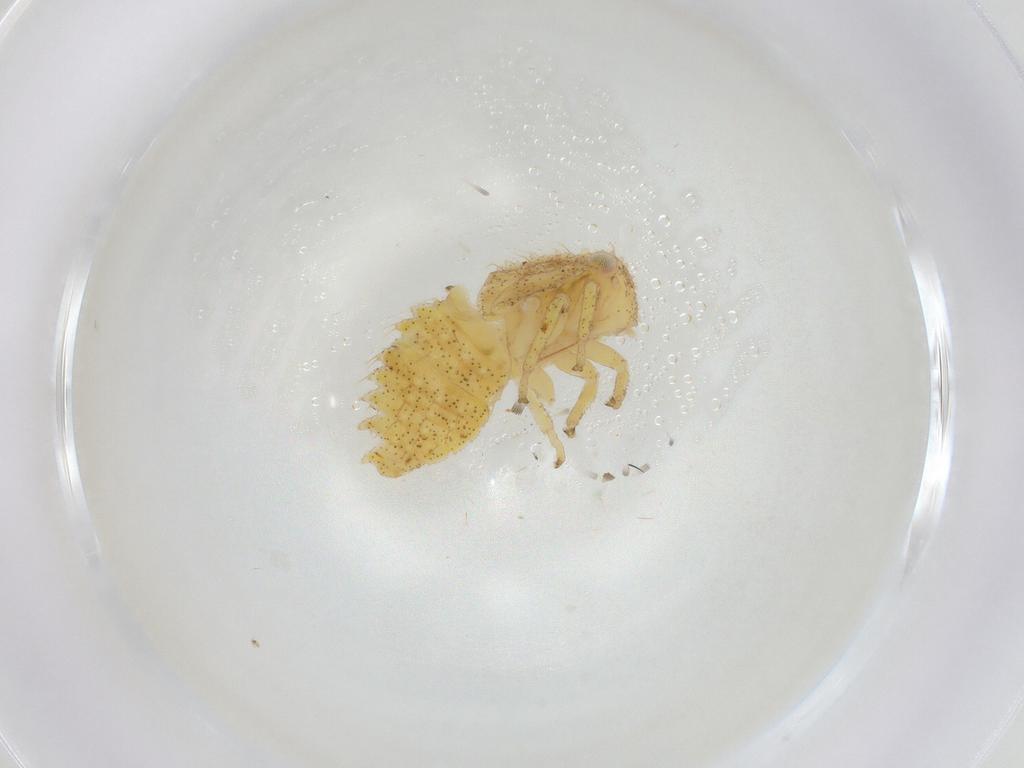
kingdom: Animalia
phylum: Arthropoda
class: Insecta
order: Hemiptera
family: Cicadellidae
